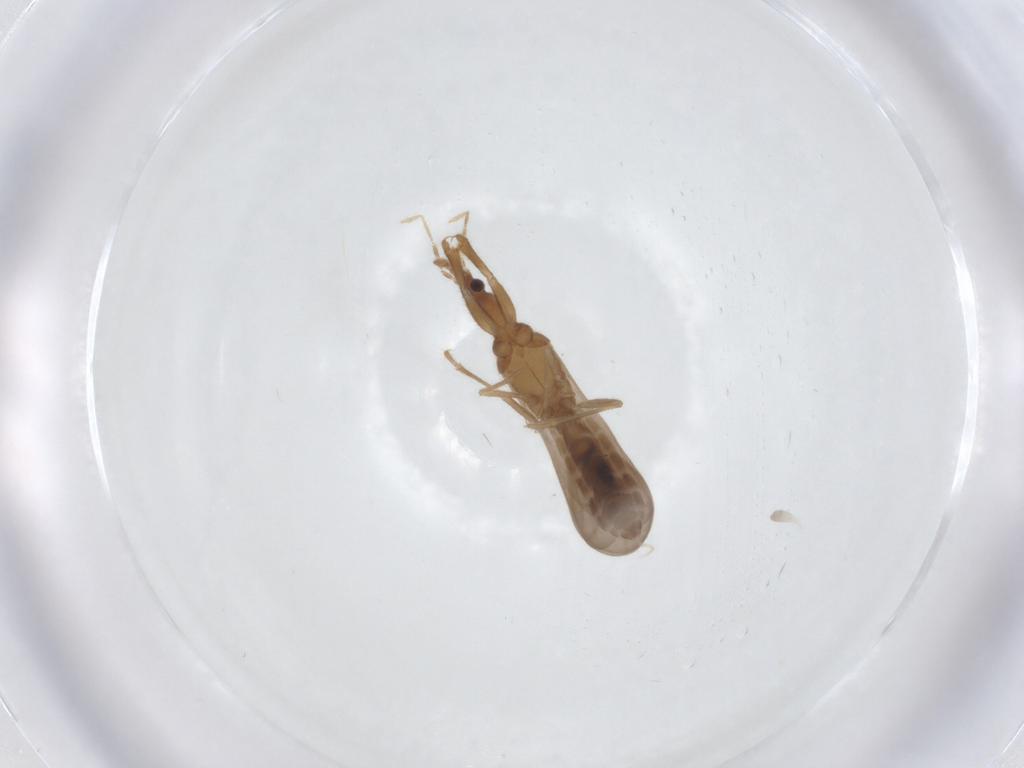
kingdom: Animalia
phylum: Arthropoda
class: Insecta
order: Hemiptera
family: Enicocephalidae
